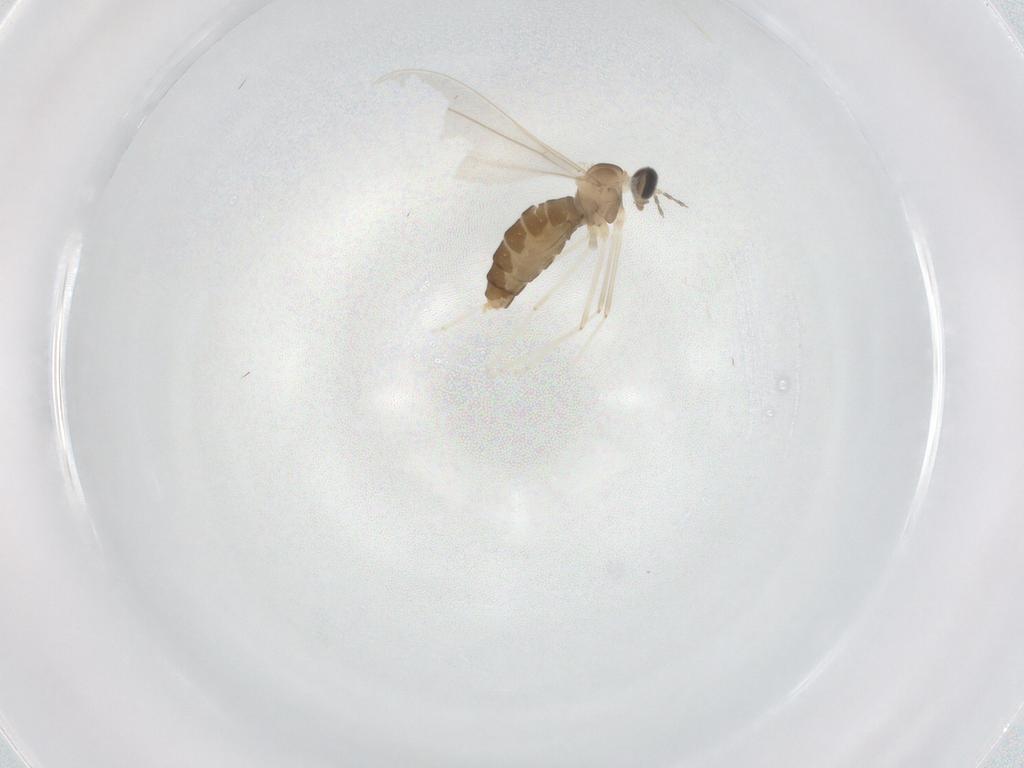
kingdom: Animalia
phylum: Arthropoda
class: Insecta
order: Diptera
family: Cecidomyiidae
